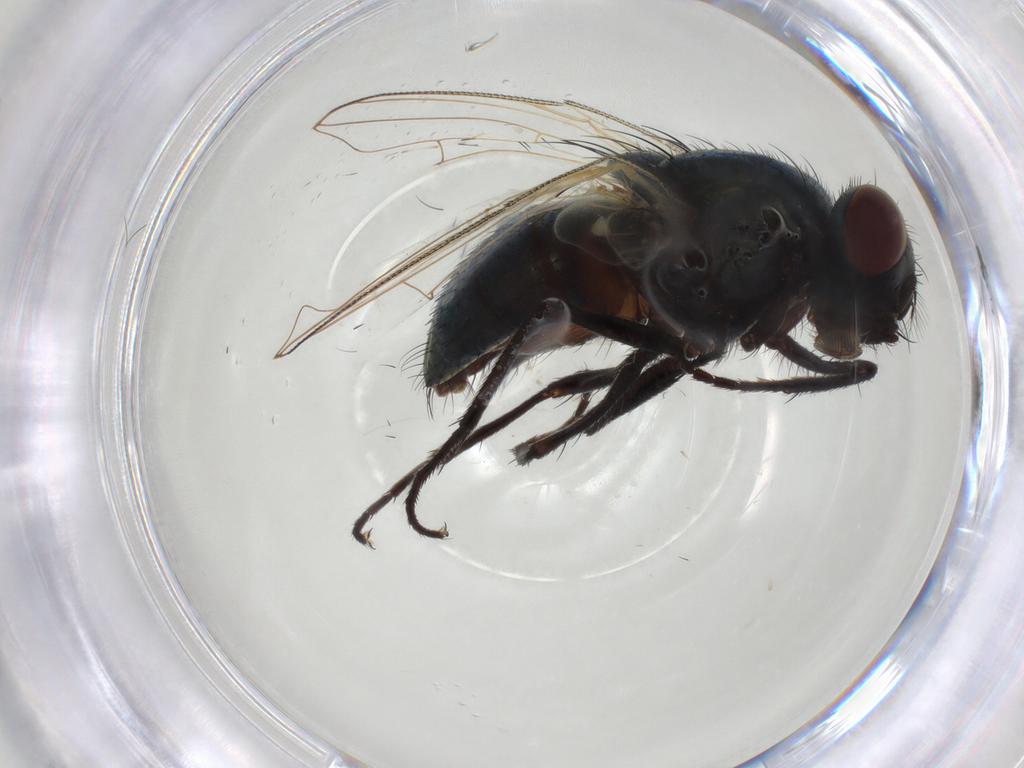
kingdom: Animalia
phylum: Arthropoda
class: Insecta
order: Diptera
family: Muscidae
